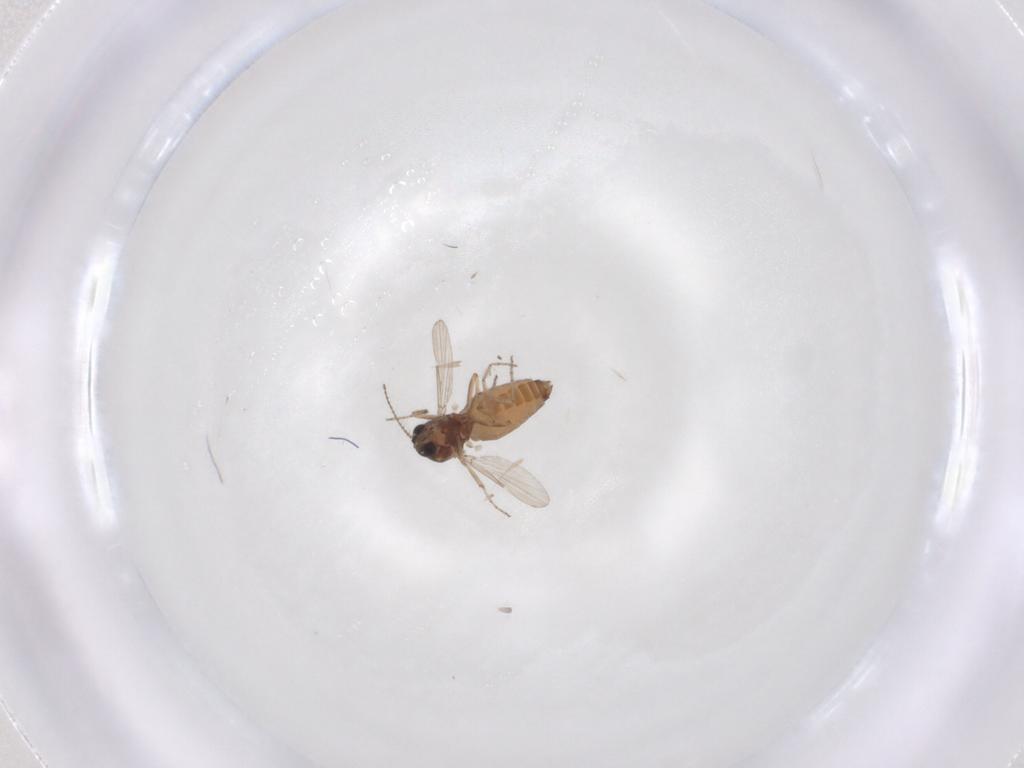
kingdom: Animalia
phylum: Arthropoda
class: Insecta
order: Diptera
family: Ceratopogonidae
